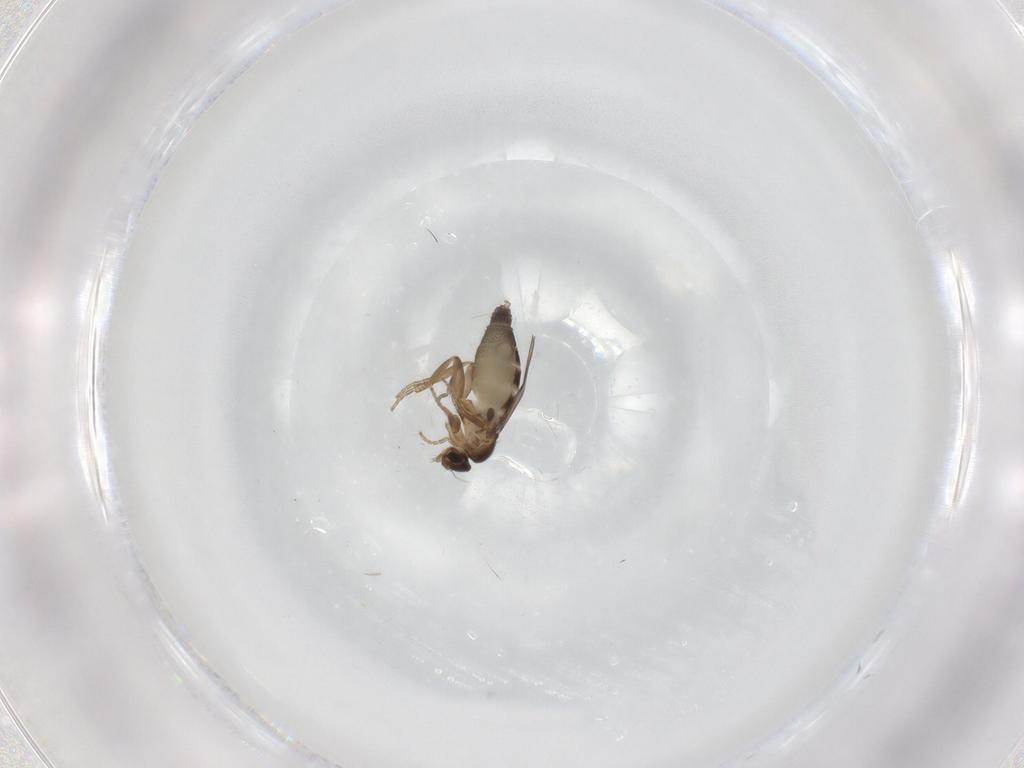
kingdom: Animalia
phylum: Arthropoda
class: Insecta
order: Diptera
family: Phoridae
